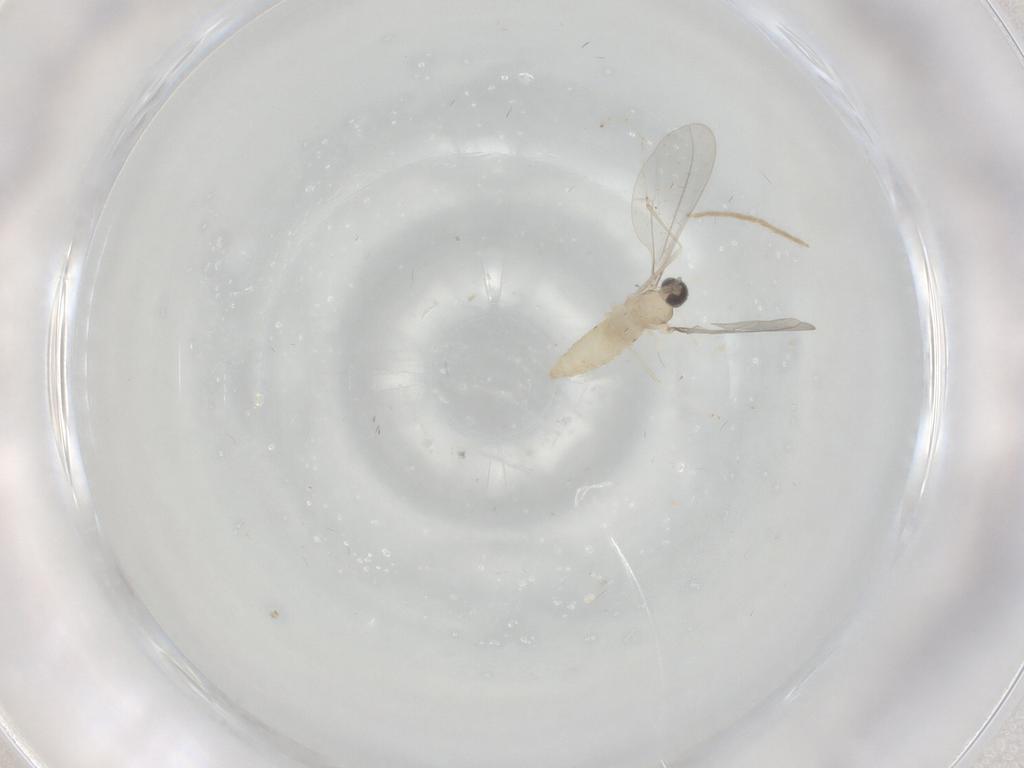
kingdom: Animalia
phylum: Arthropoda
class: Insecta
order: Diptera
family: Cecidomyiidae
